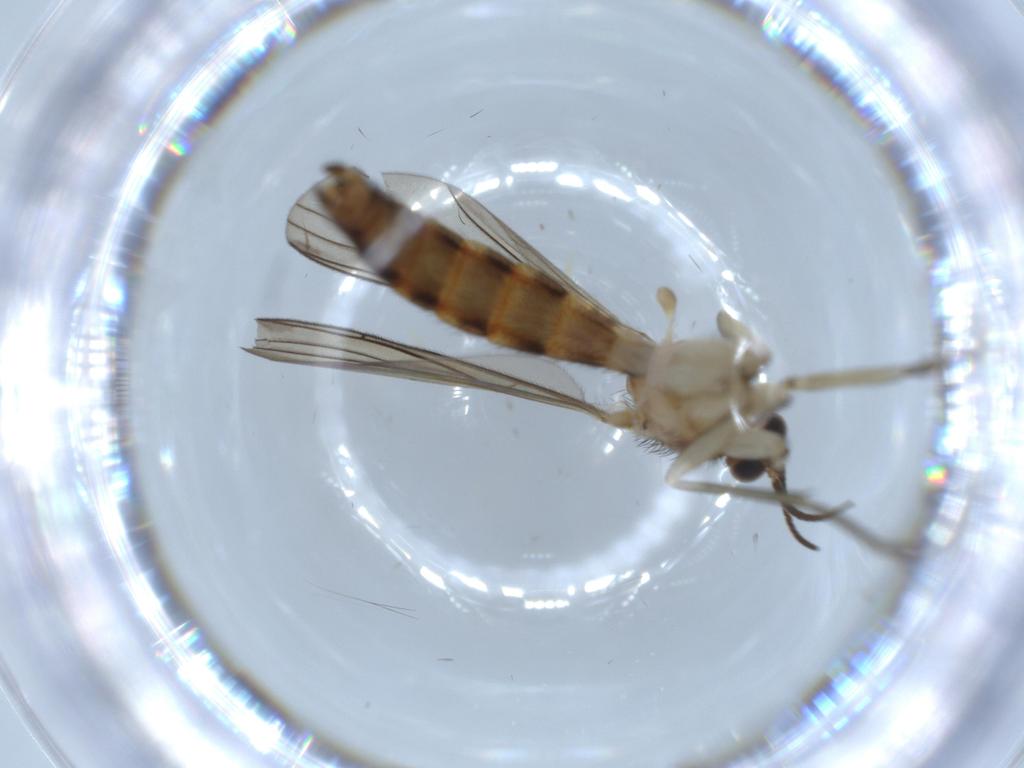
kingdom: Animalia
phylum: Arthropoda
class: Insecta
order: Diptera
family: Keroplatidae
